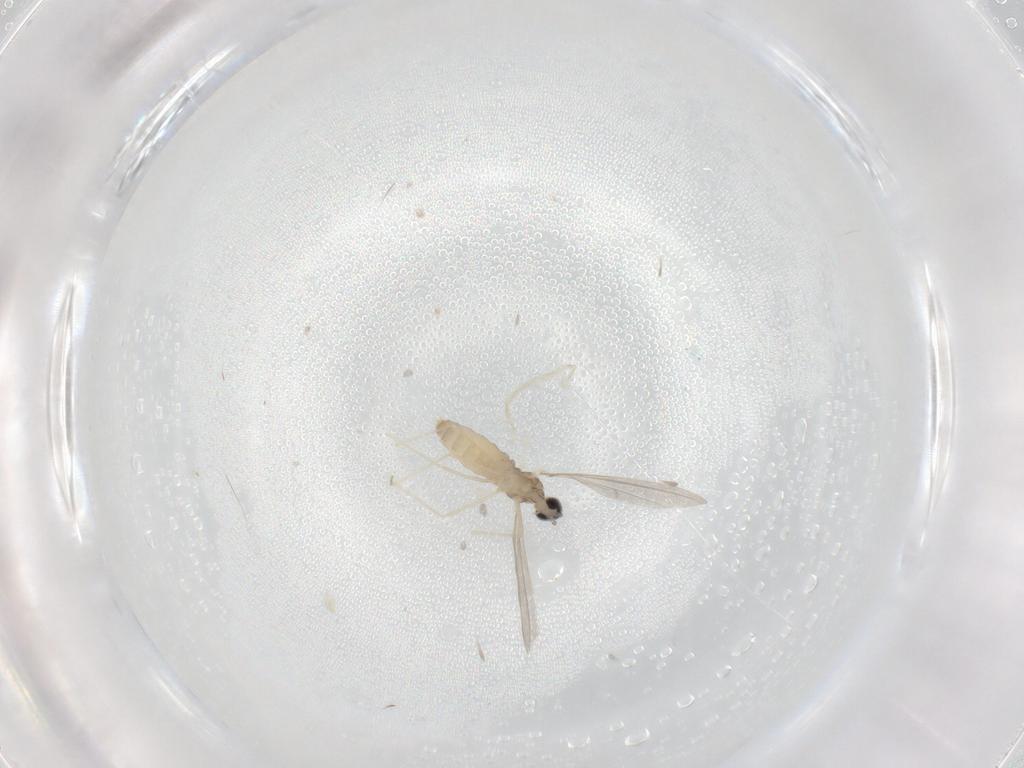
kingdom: Animalia
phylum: Arthropoda
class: Insecta
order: Diptera
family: Cecidomyiidae
